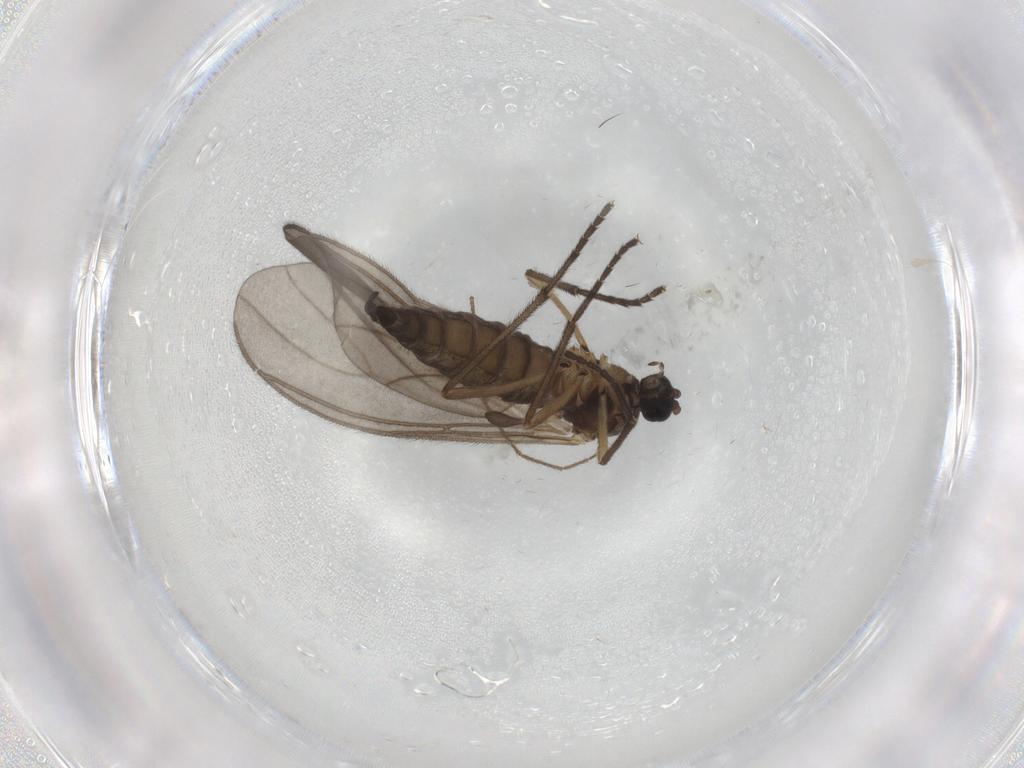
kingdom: Animalia
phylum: Arthropoda
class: Insecta
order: Diptera
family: Sciaridae
